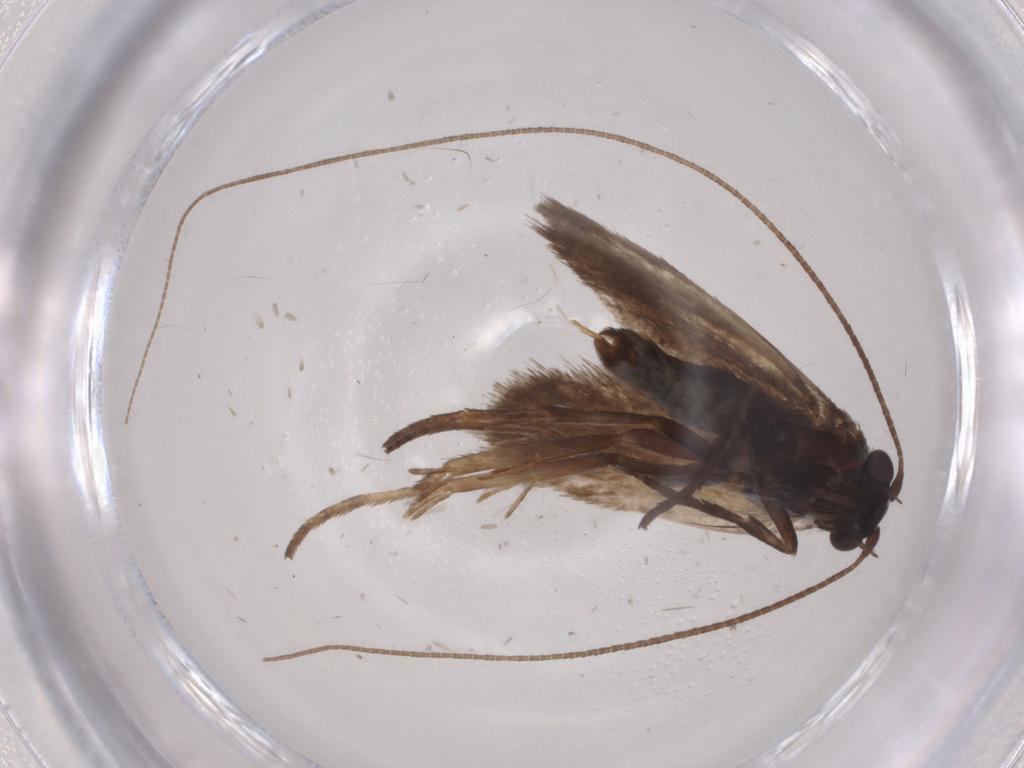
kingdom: Animalia
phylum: Arthropoda
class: Insecta
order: Lepidoptera
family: Adelidae
